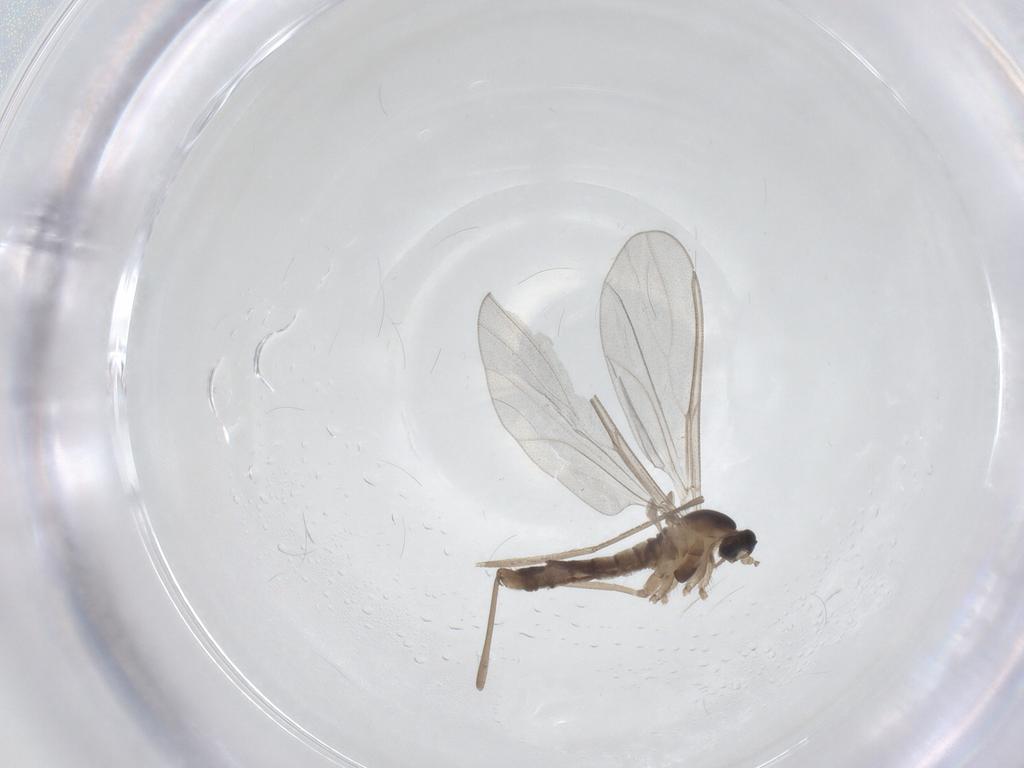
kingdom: Animalia
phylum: Arthropoda
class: Insecta
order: Diptera
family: Cecidomyiidae
